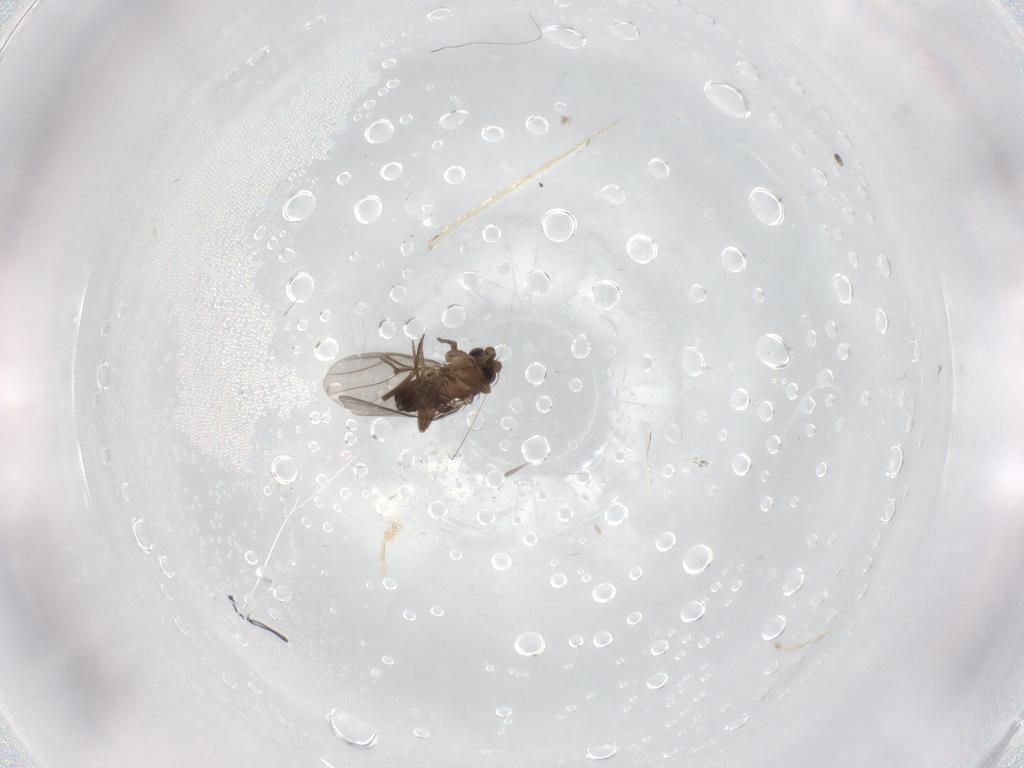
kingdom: Animalia
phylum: Arthropoda
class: Insecta
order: Diptera
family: Phoridae
